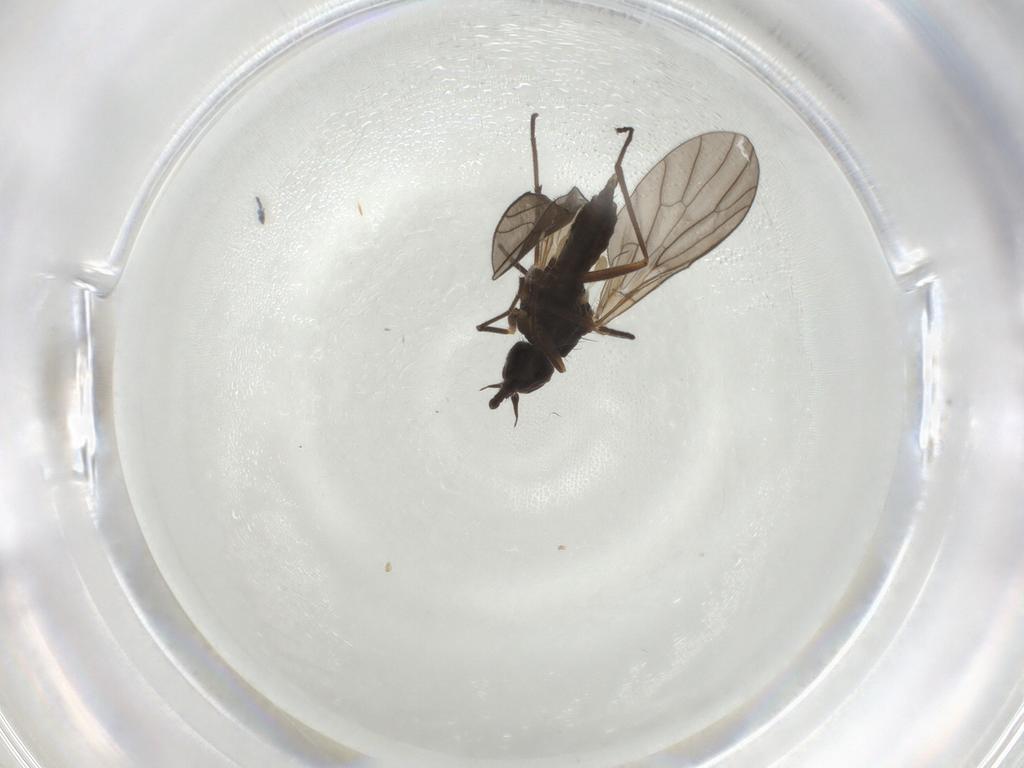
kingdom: Animalia
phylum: Arthropoda
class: Insecta
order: Diptera
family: Empididae
